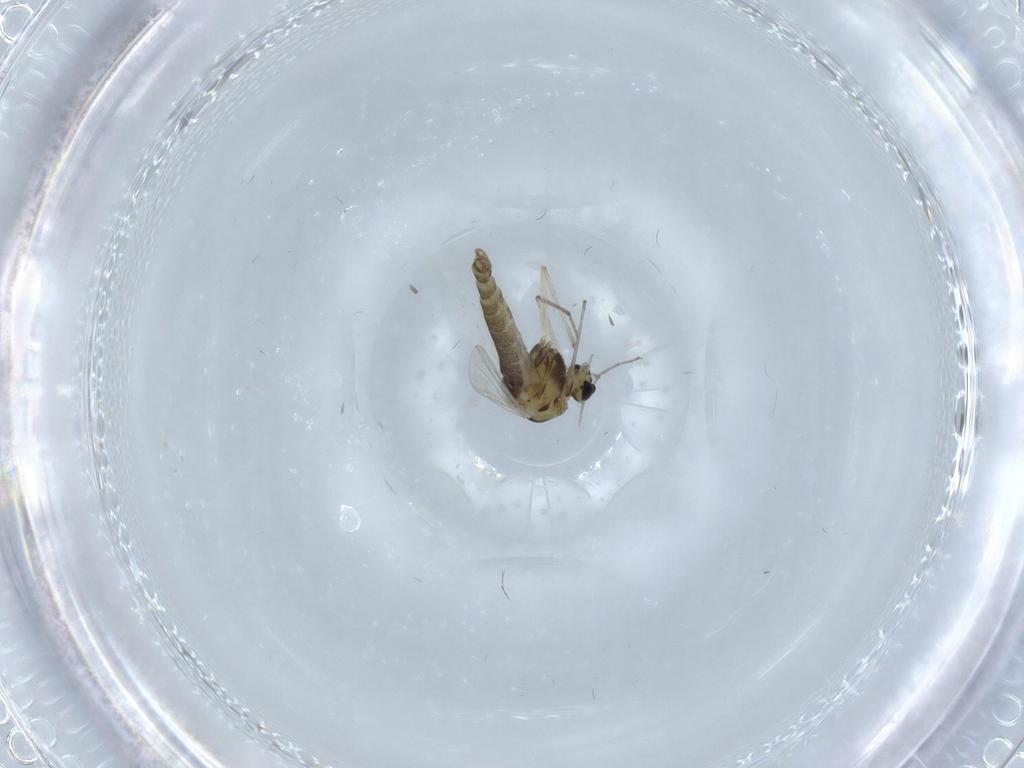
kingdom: Animalia
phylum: Arthropoda
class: Insecta
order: Diptera
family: Chironomidae
